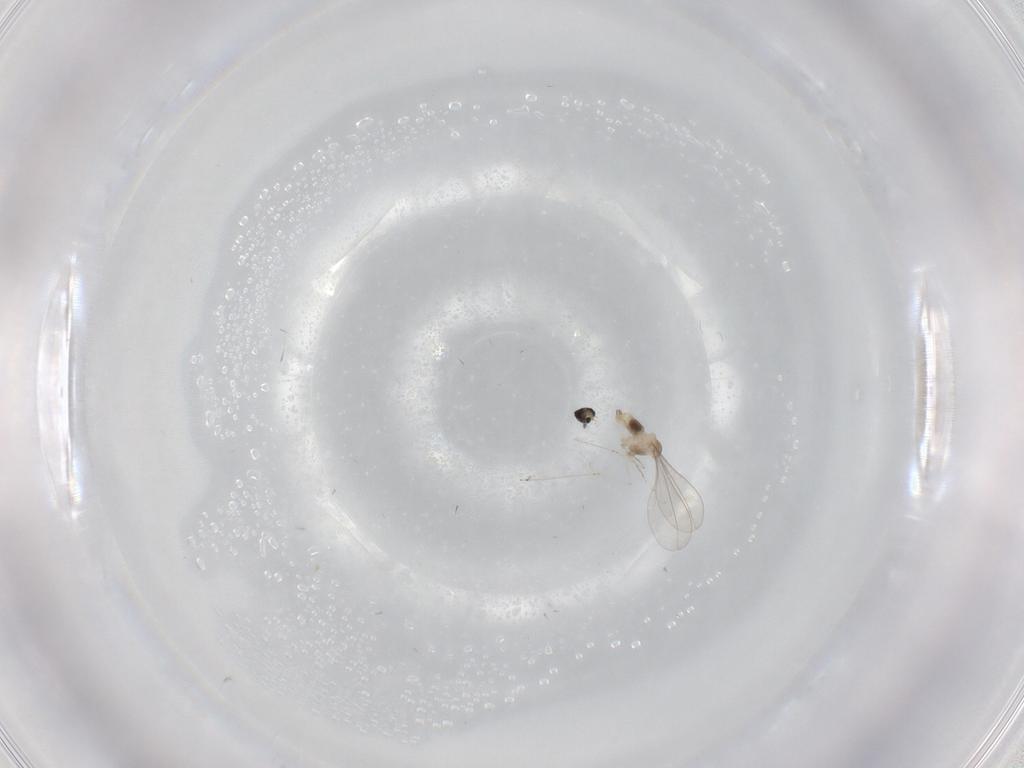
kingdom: Animalia
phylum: Arthropoda
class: Insecta
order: Diptera
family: Cecidomyiidae
